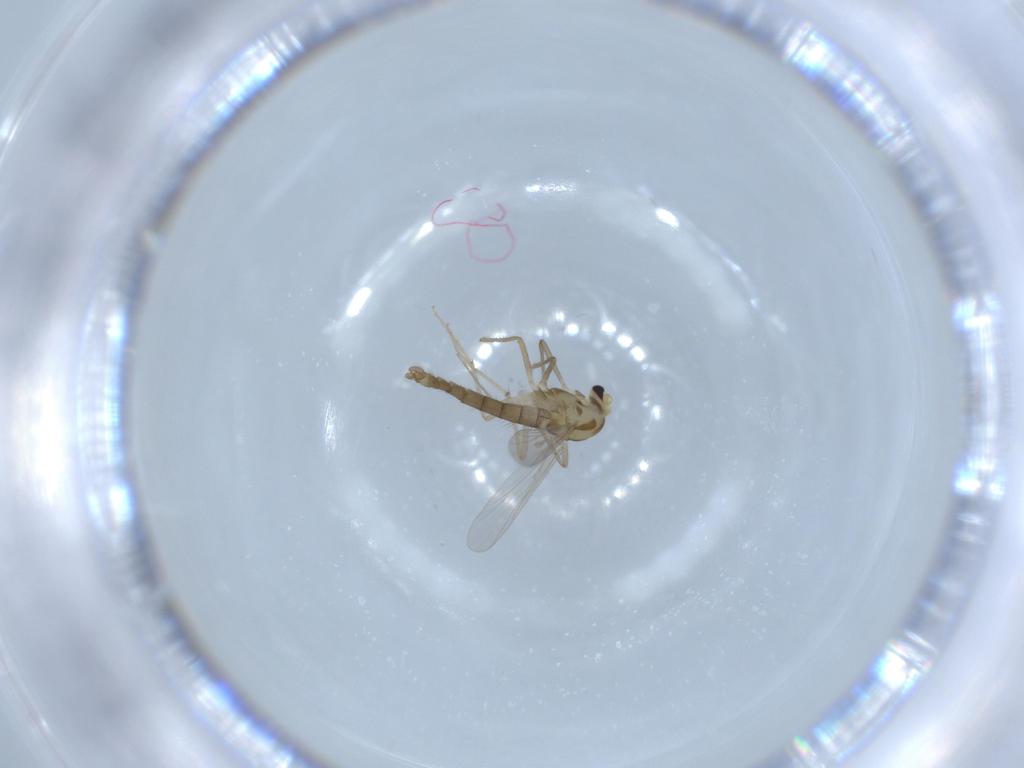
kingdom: Animalia
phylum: Arthropoda
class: Insecta
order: Diptera
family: Chironomidae
